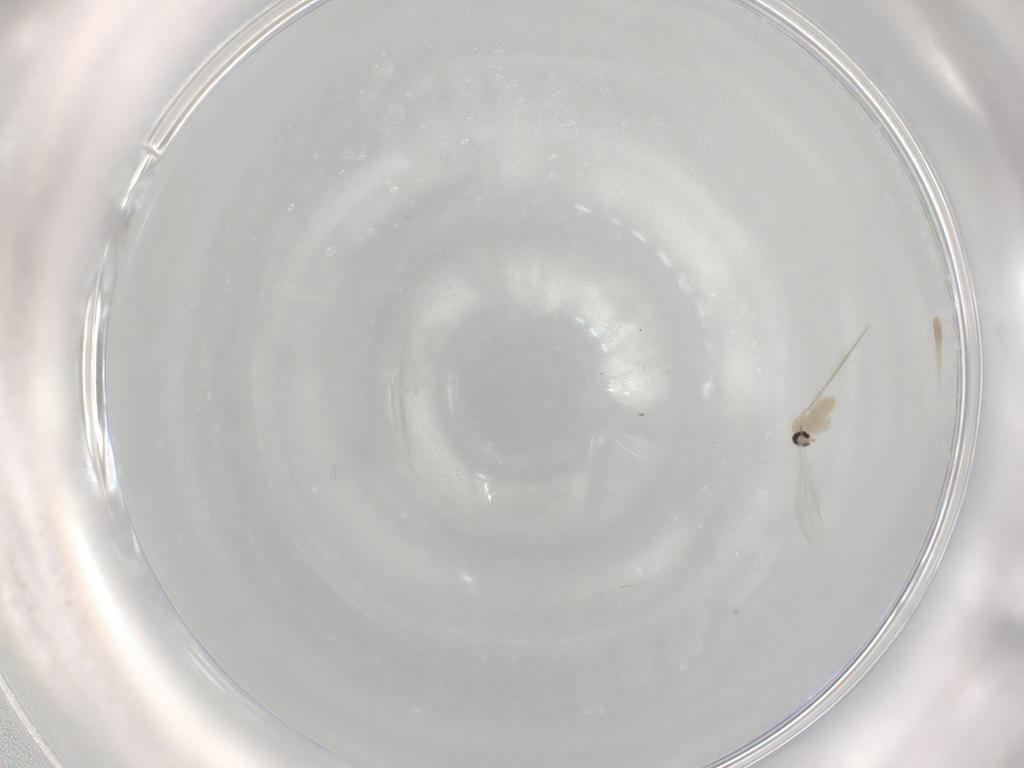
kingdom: Animalia
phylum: Arthropoda
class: Insecta
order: Diptera
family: Cecidomyiidae
